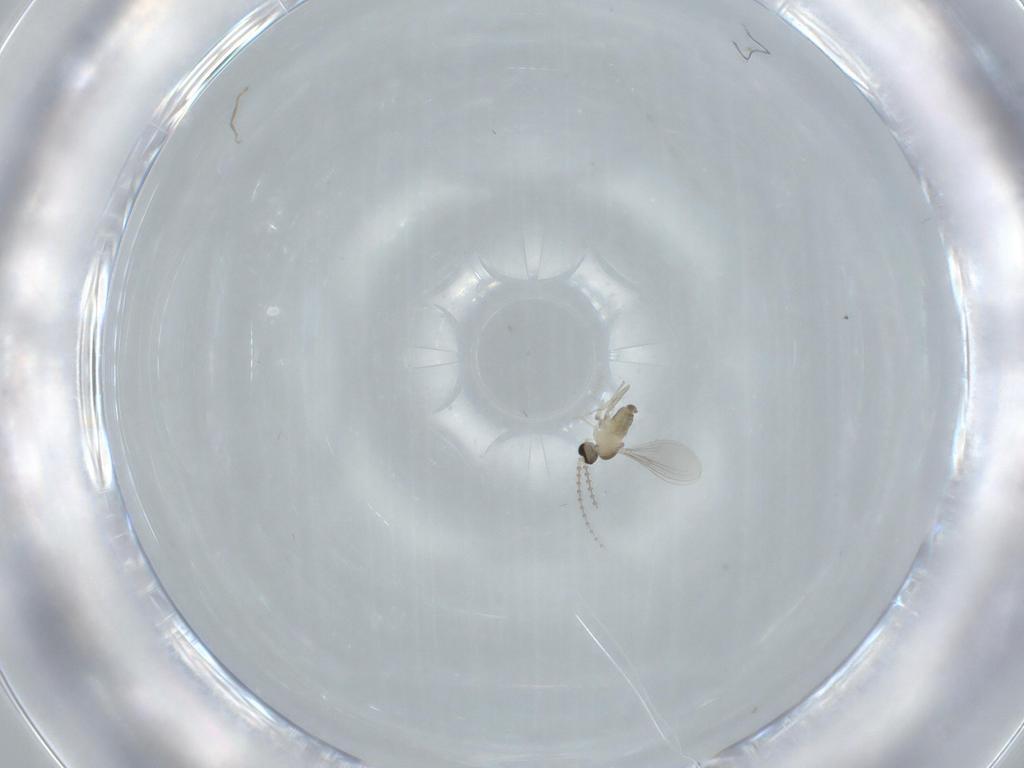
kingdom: Animalia
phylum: Arthropoda
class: Insecta
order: Diptera
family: Cecidomyiidae
